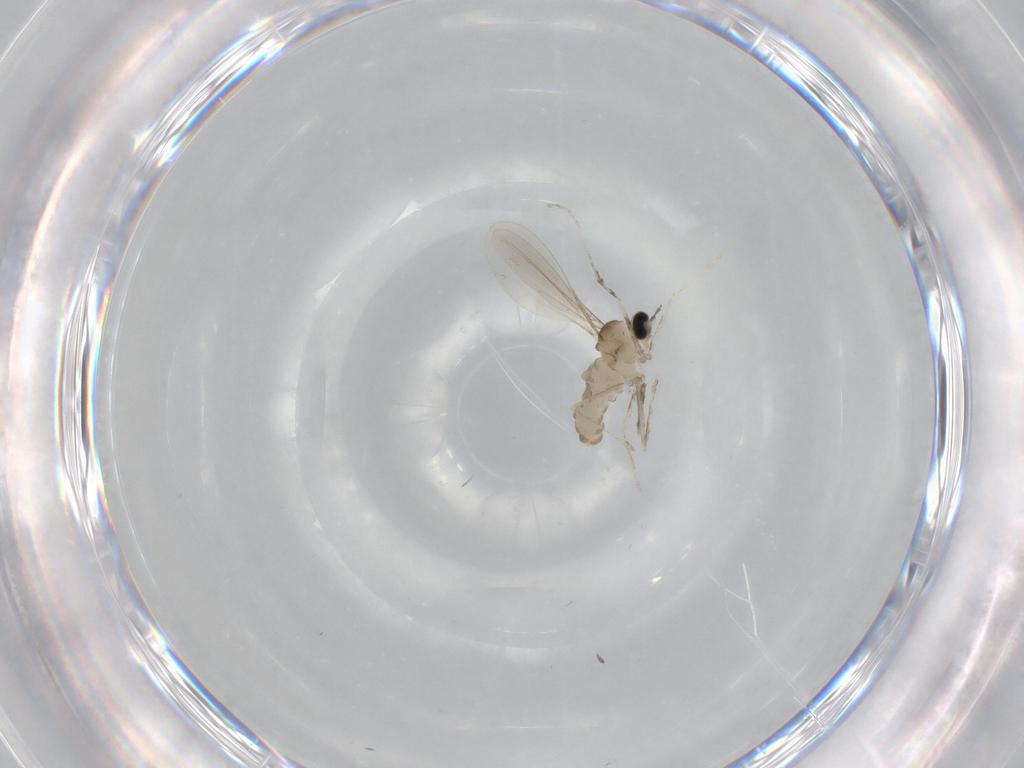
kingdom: Animalia
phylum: Arthropoda
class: Insecta
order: Diptera
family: Cecidomyiidae
